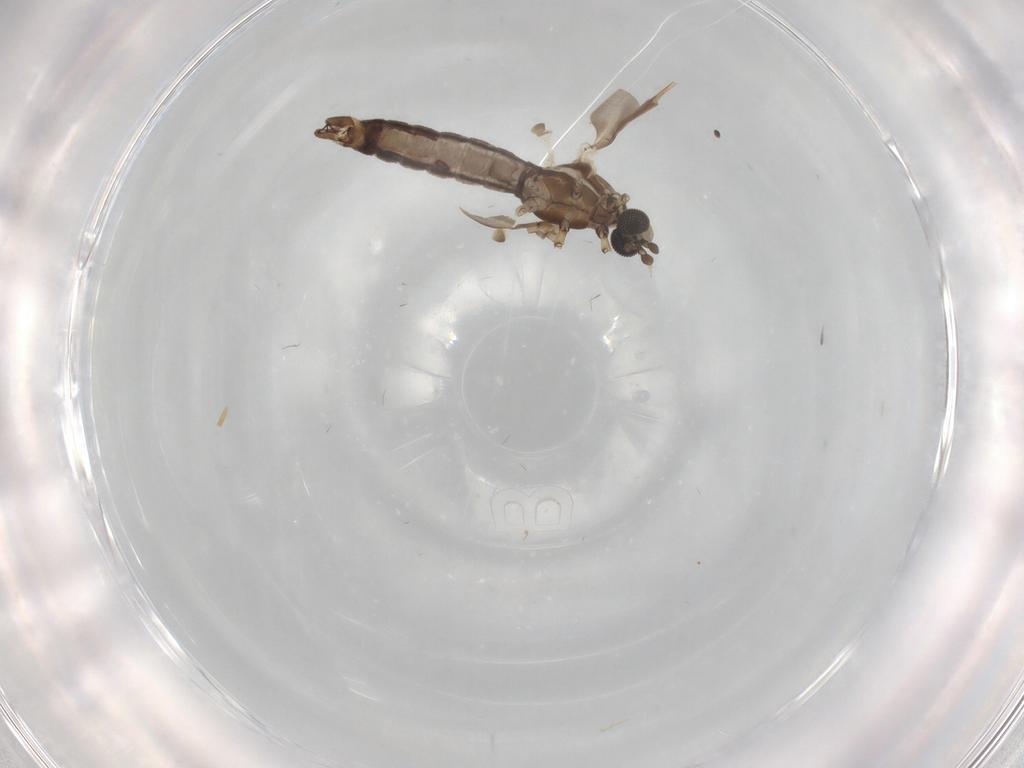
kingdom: Animalia
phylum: Arthropoda
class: Insecta
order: Diptera
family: Limoniidae
